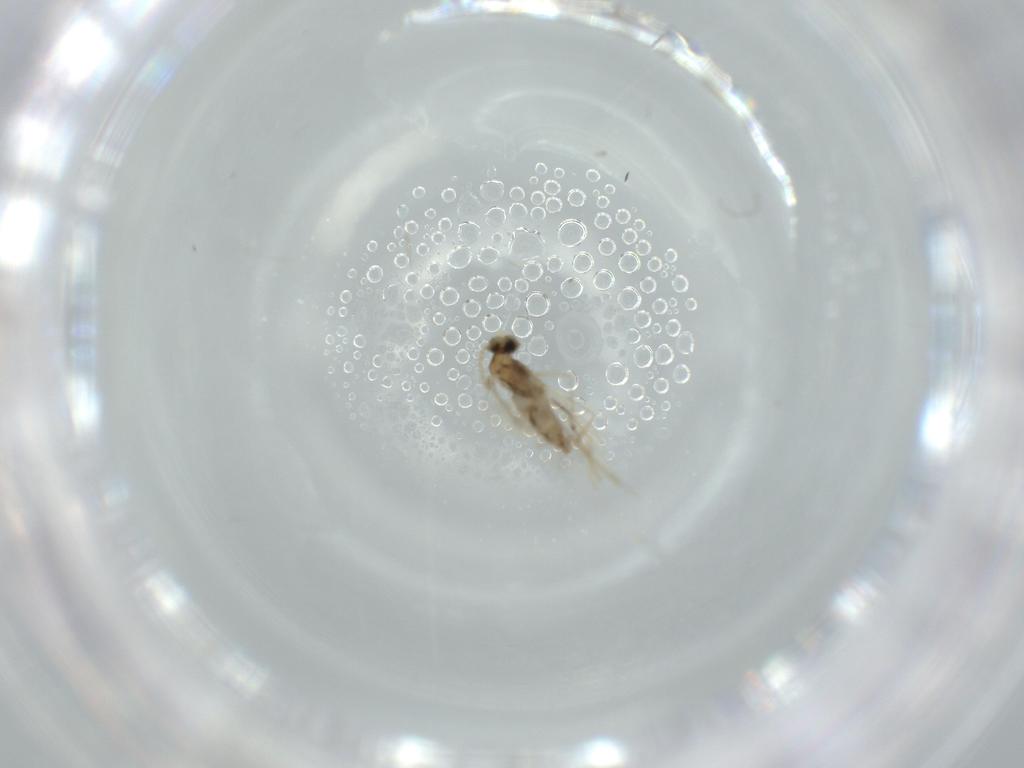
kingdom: Animalia
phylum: Arthropoda
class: Insecta
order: Diptera
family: Cecidomyiidae
